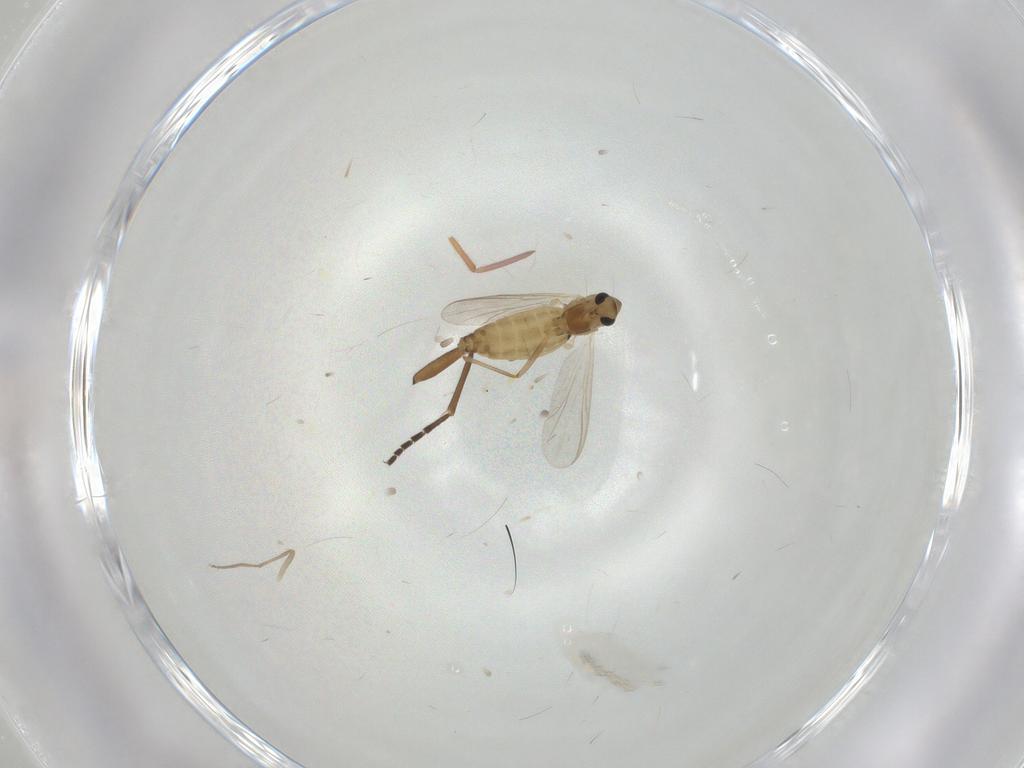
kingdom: Animalia
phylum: Arthropoda
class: Insecta
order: Diptera
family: Chironomidae
